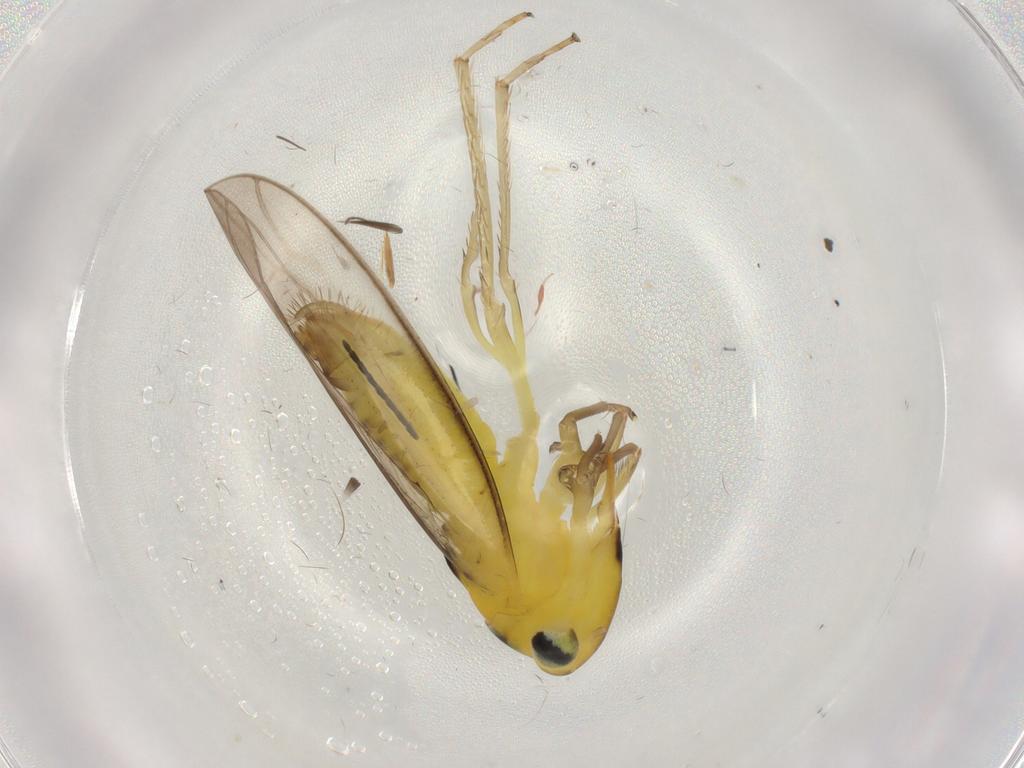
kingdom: Animalia
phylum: Arthropoda
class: Insecta
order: Hemiptera
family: Cicadellidae
